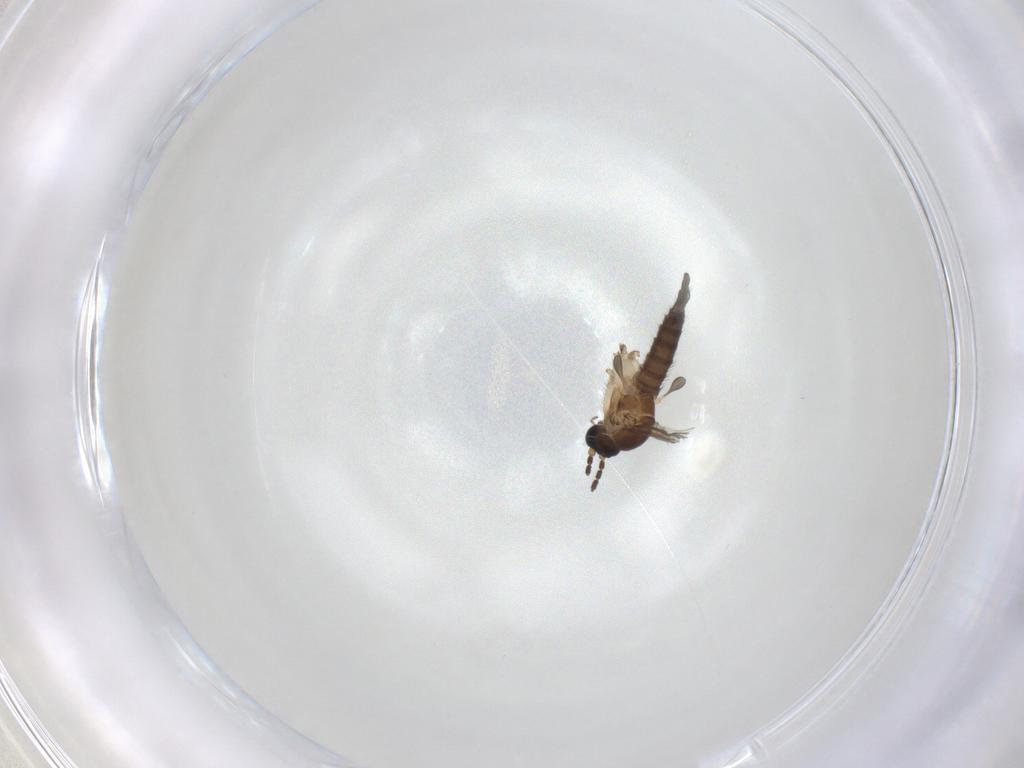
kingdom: Animalia
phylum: Arthropoda
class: Insecta
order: Diptera
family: Sciaridae
